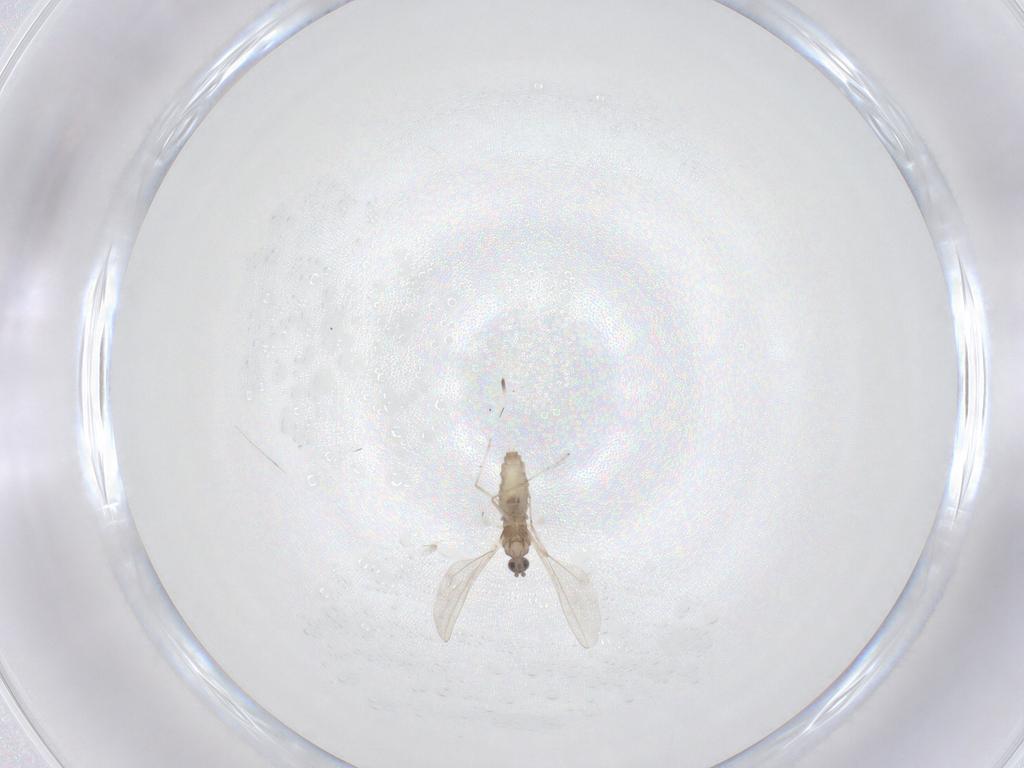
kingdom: Animalia
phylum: Arthropoda
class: Insecta
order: Diptera
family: Cecidomyiidae
